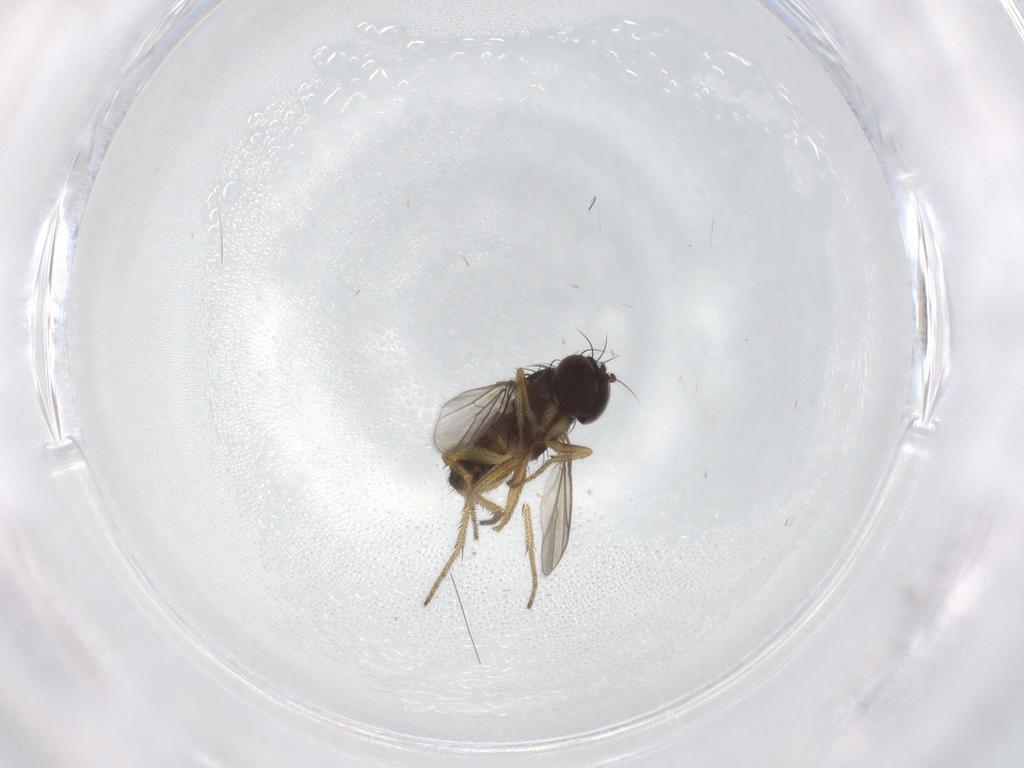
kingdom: Animalia
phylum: Arthropoda
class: Insecta
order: Diptera
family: Dolichopodidae
